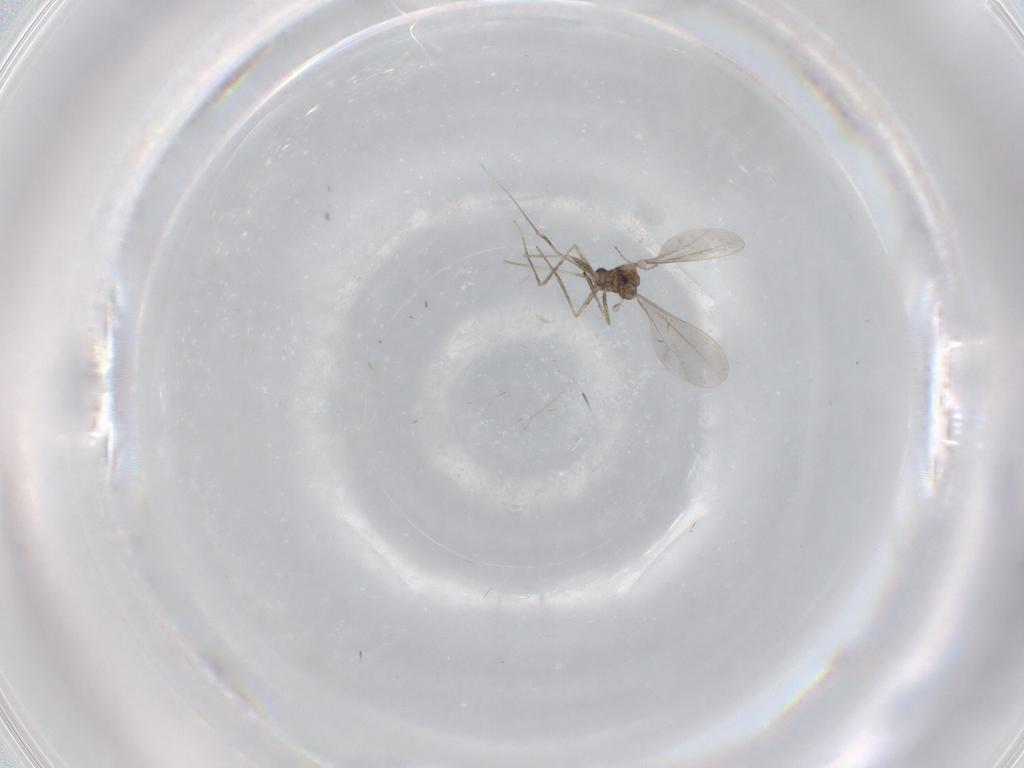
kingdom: Animalia
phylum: Arthropoda
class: Insecta
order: Diptera
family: Cecidomyiidae
